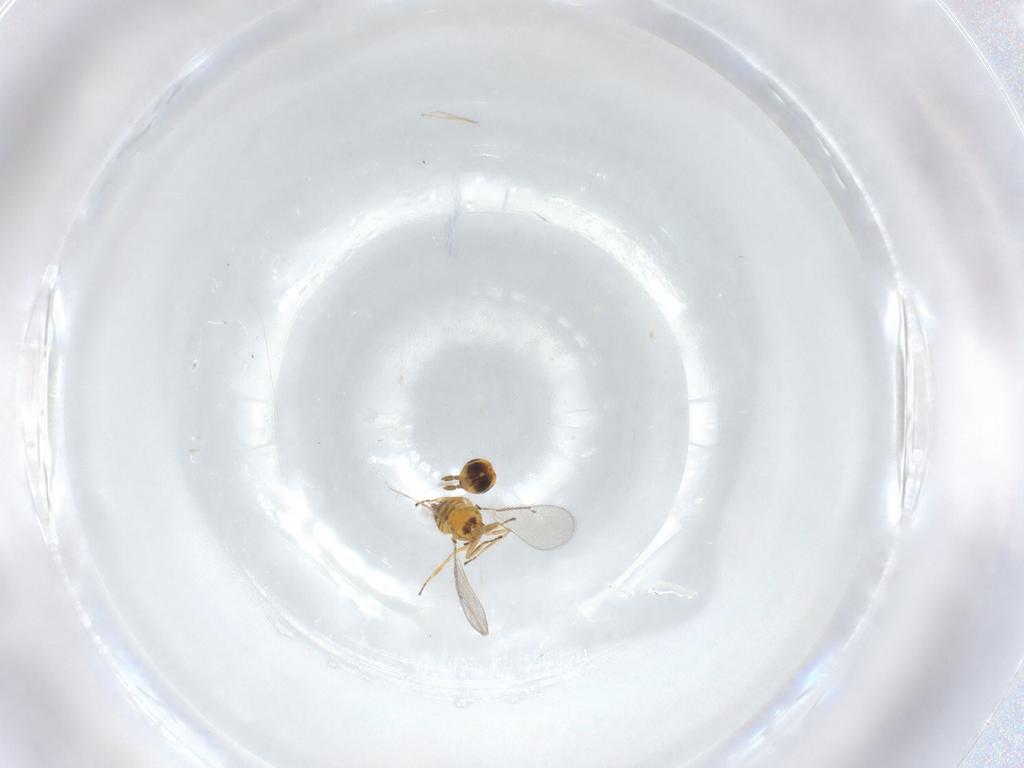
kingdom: Animalia
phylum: Arthropoda
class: Insecta
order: Hymenoptera
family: Eulophidae
